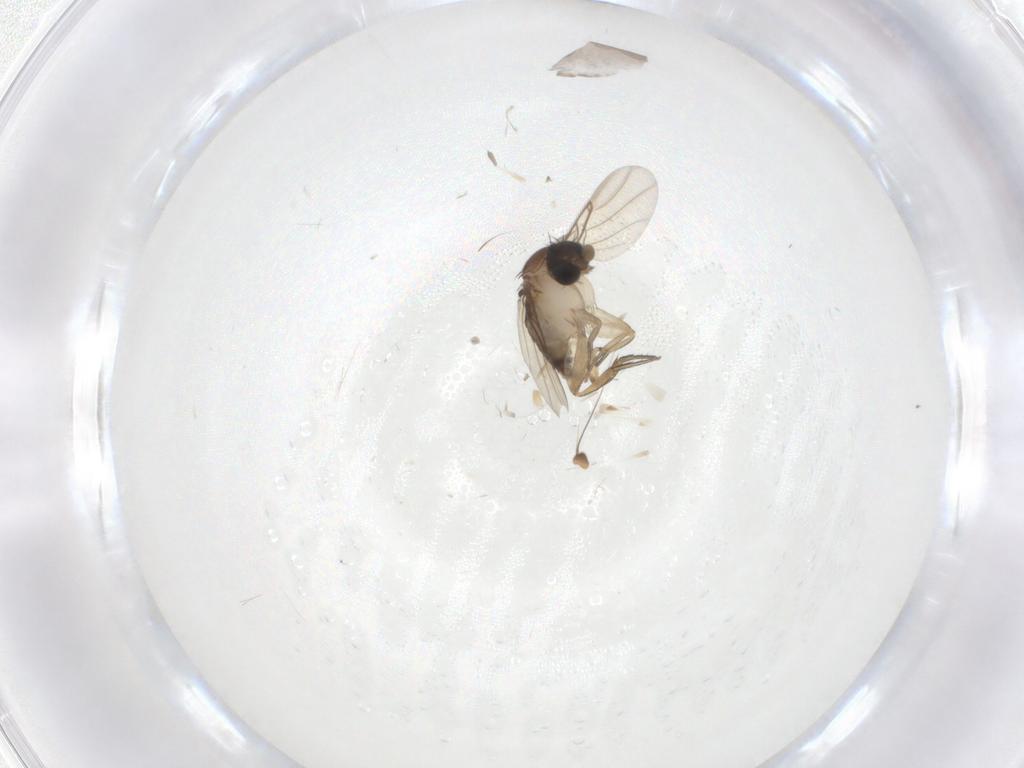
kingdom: Animalia
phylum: Arthropoda
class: Insecta
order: Diptera
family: Phoridae
